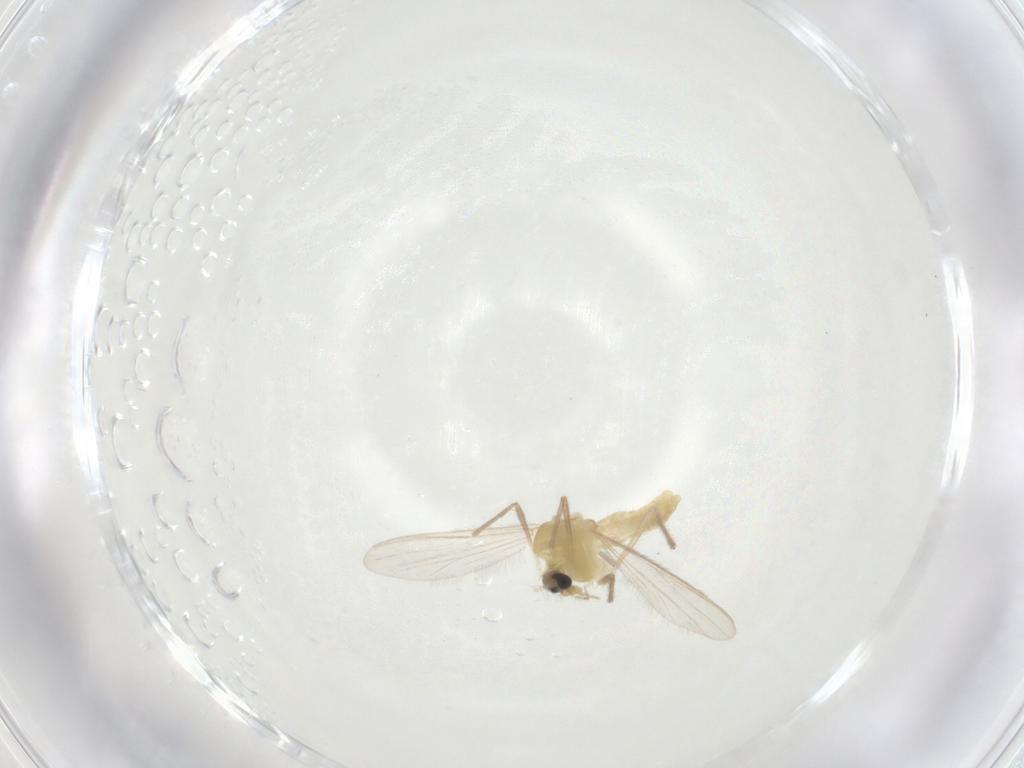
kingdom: Animalia
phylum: Arthropoda
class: Insecta
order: Diptera
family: Chironomidae
